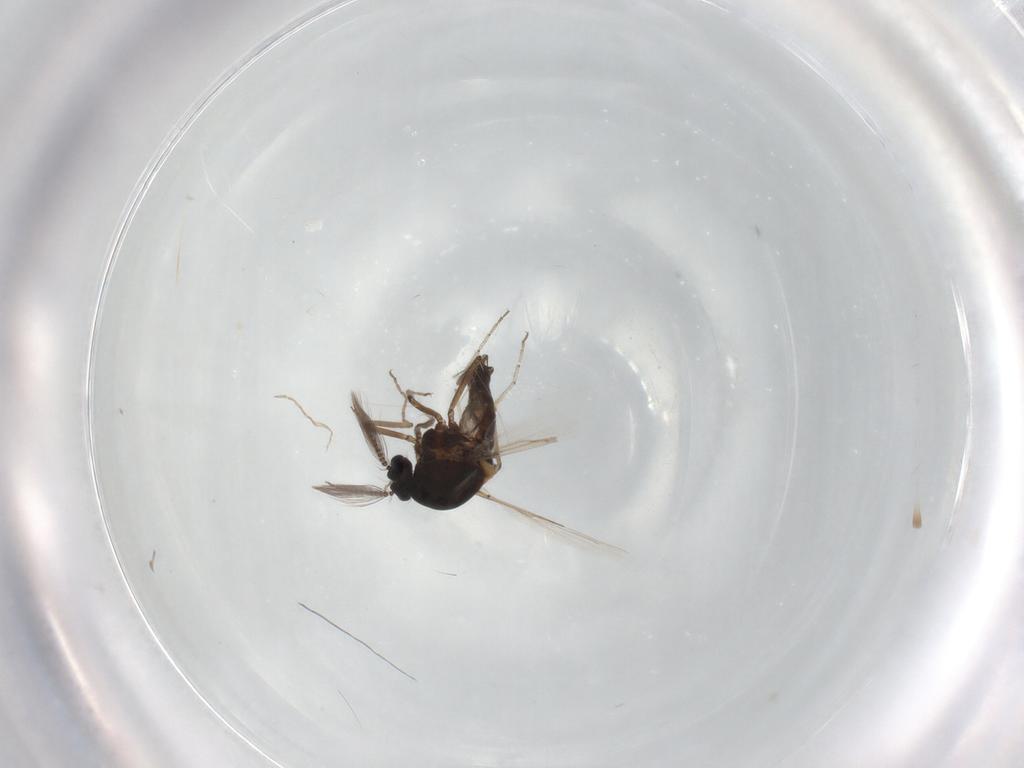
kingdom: Animalia
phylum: Arthropoda
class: Insecta
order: Diptera
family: Ceratopogonidae
